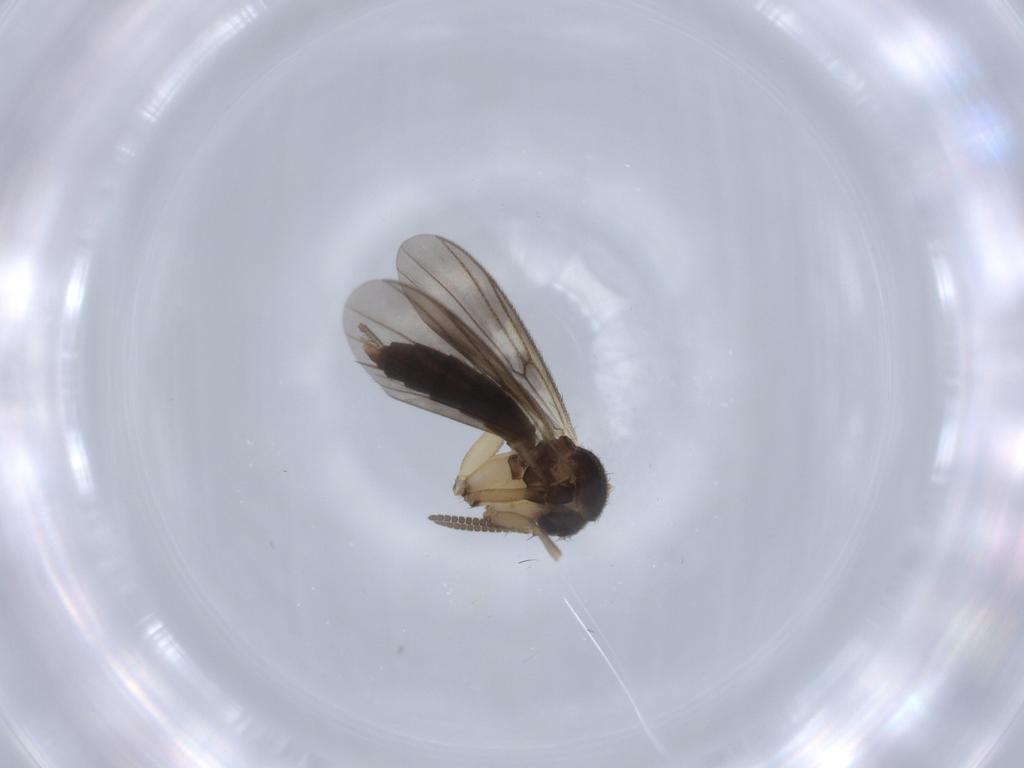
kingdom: Animalia
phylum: Arthropoda
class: Insecta
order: Diptera
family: Mycetophilidae
